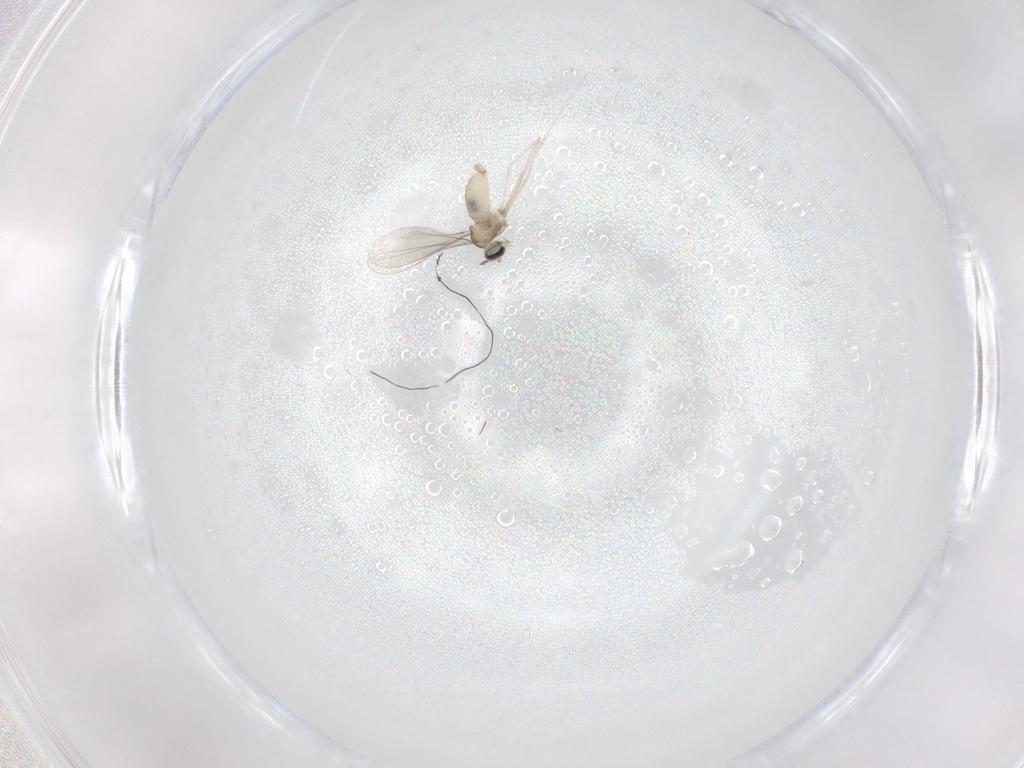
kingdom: Animalia
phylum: Arthropoda
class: Insecta
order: Diptera
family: Cecidomyiidae
